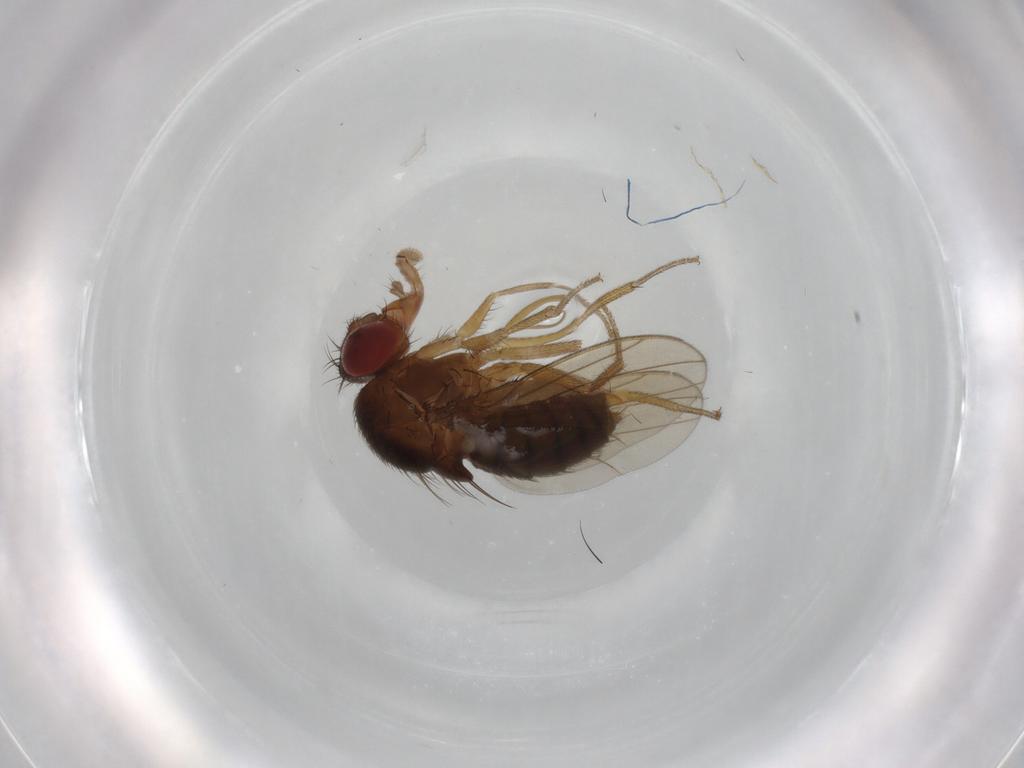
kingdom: Animalia
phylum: Arthropoda
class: Insecta
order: Diptera
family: Drosophilidae
